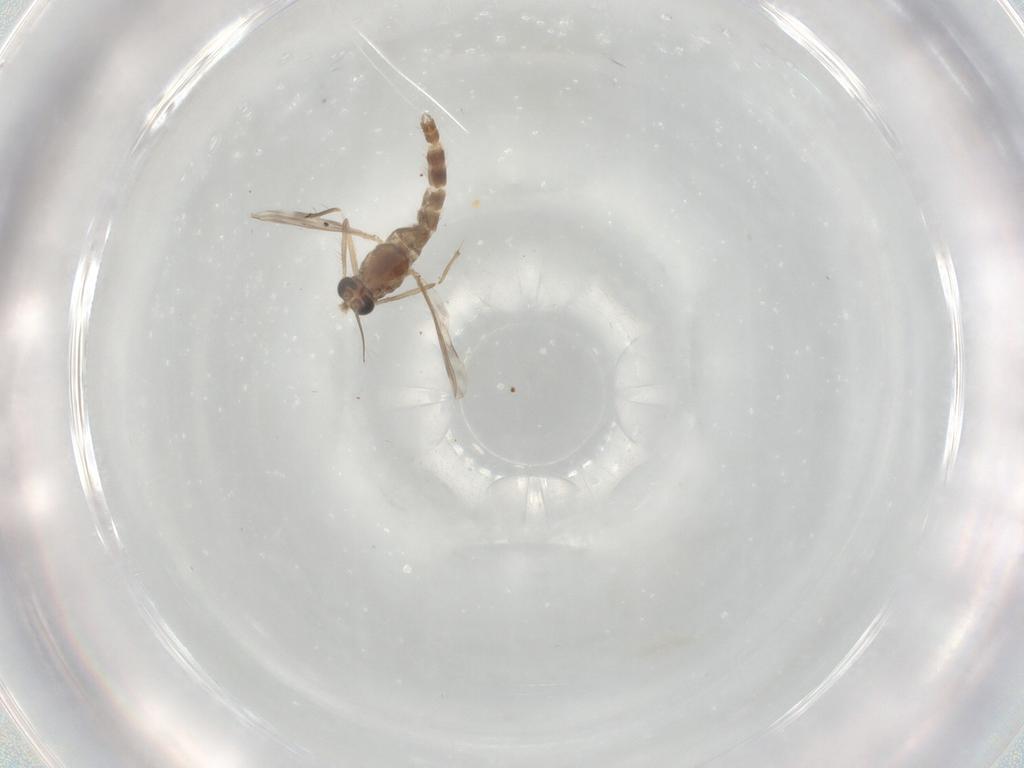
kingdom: Animalia
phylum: Arthropoda
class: Insecta
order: Diptera
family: Chironomidae
